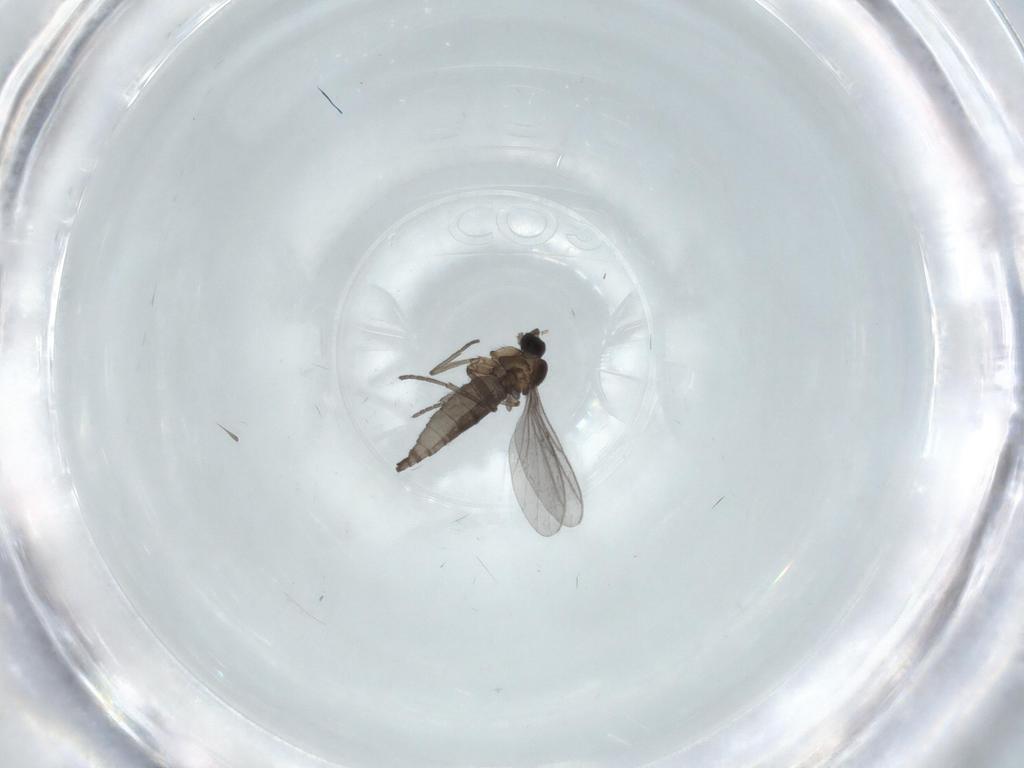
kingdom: Animalia
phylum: Arthropoda
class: Insecta
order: Diptera
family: Phoridae
